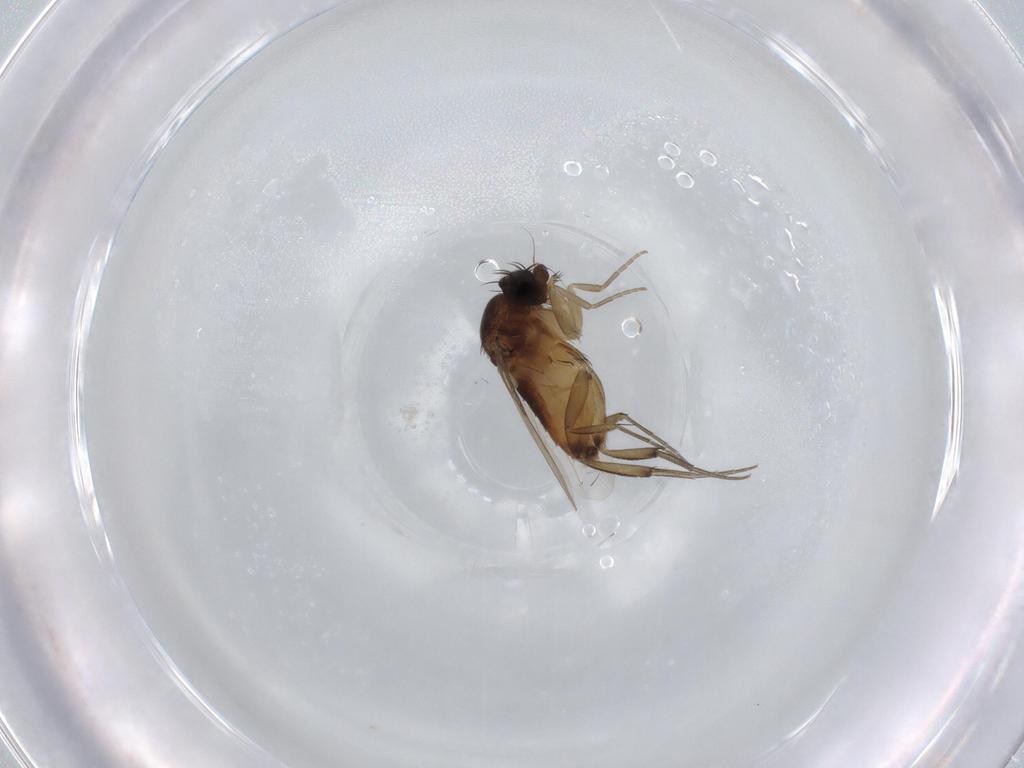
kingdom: Animalia
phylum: Arthropoda
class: Insecta
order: Diptera
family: Phoridae
